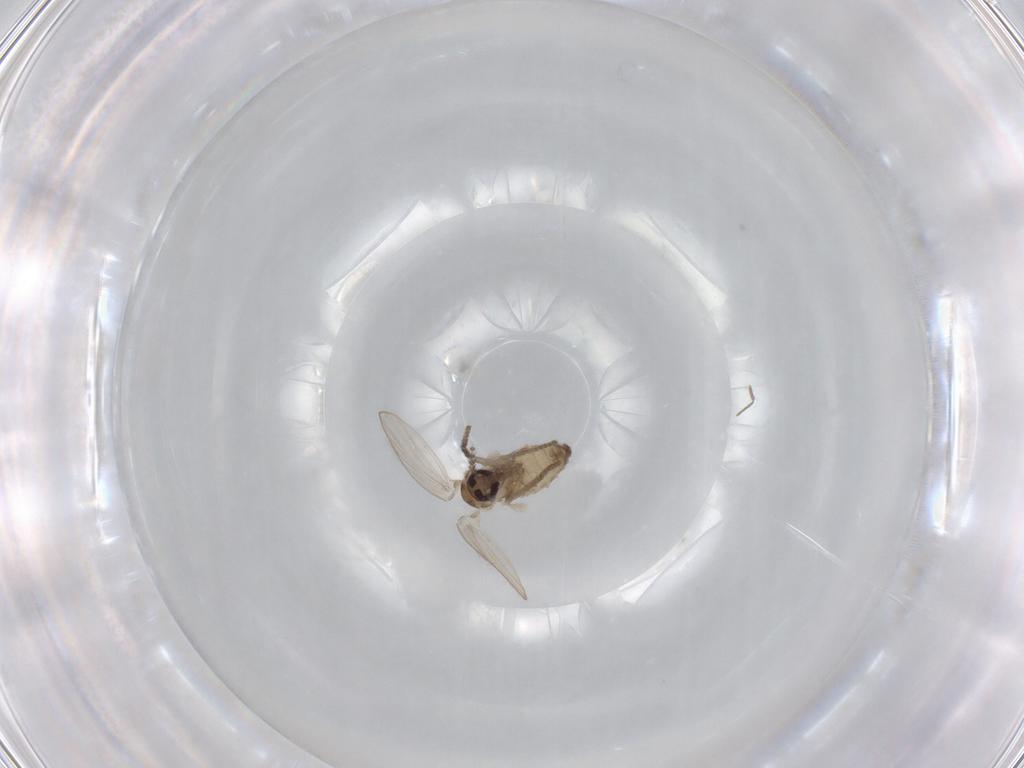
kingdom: Animalia
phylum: Arthropoda
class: Insecta
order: Diptera
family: Psychodidae
